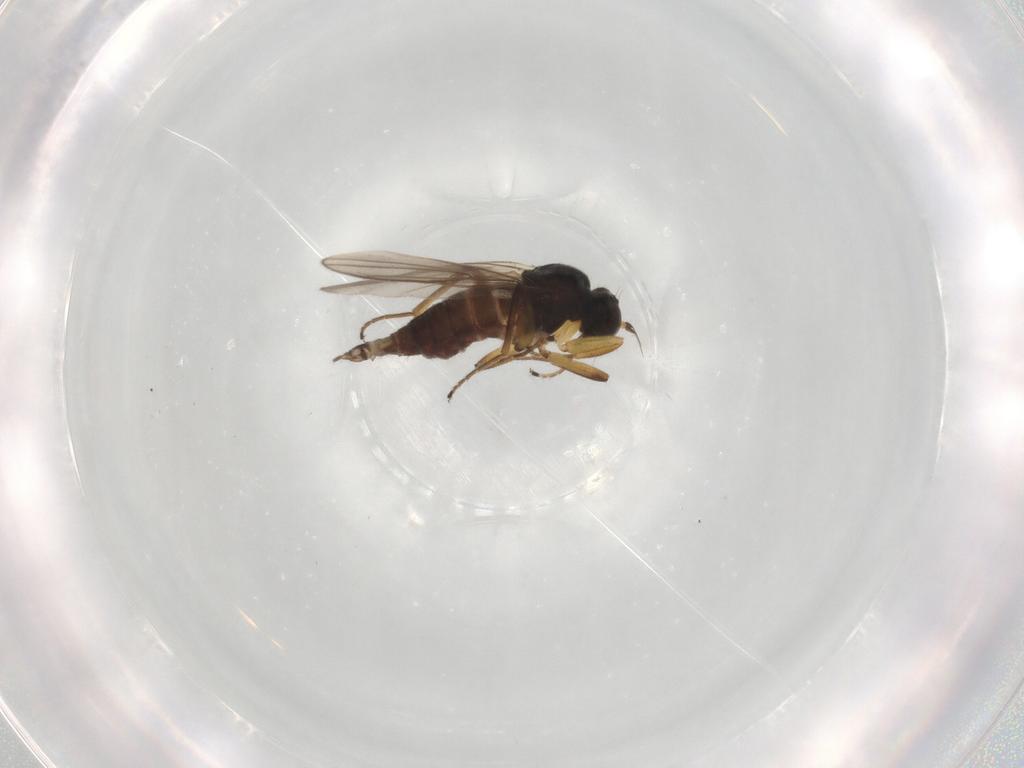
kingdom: Animalia
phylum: Arthropoda
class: Insecta
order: Diptera
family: Hybotidae
